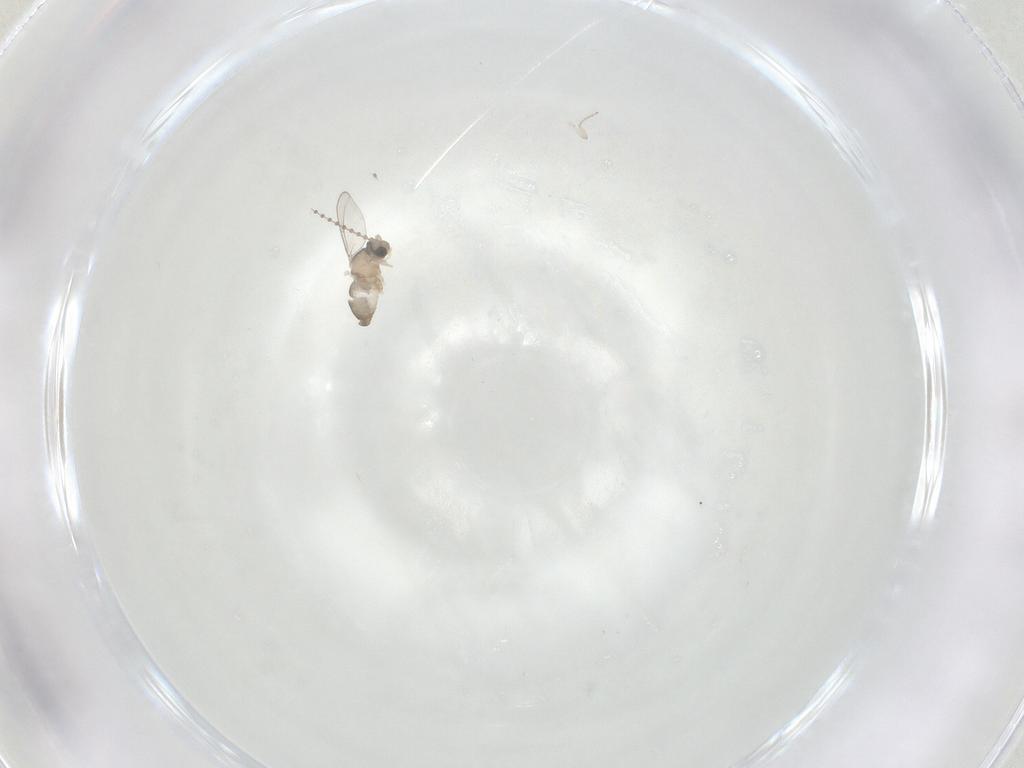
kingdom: Animalia
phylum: Arthropoda
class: Insecta
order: Diptera
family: Cecidomyiidae
